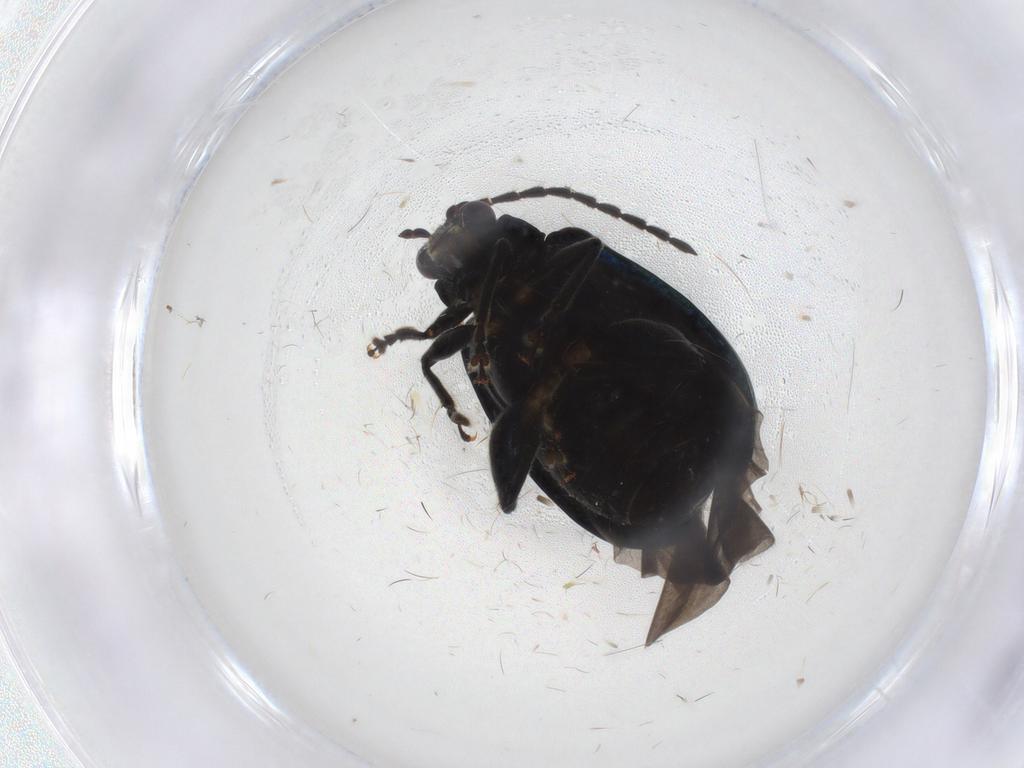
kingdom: Animalia
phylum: Arthropoda
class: Insecta
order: Coleoptera
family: Chrysomelidae
